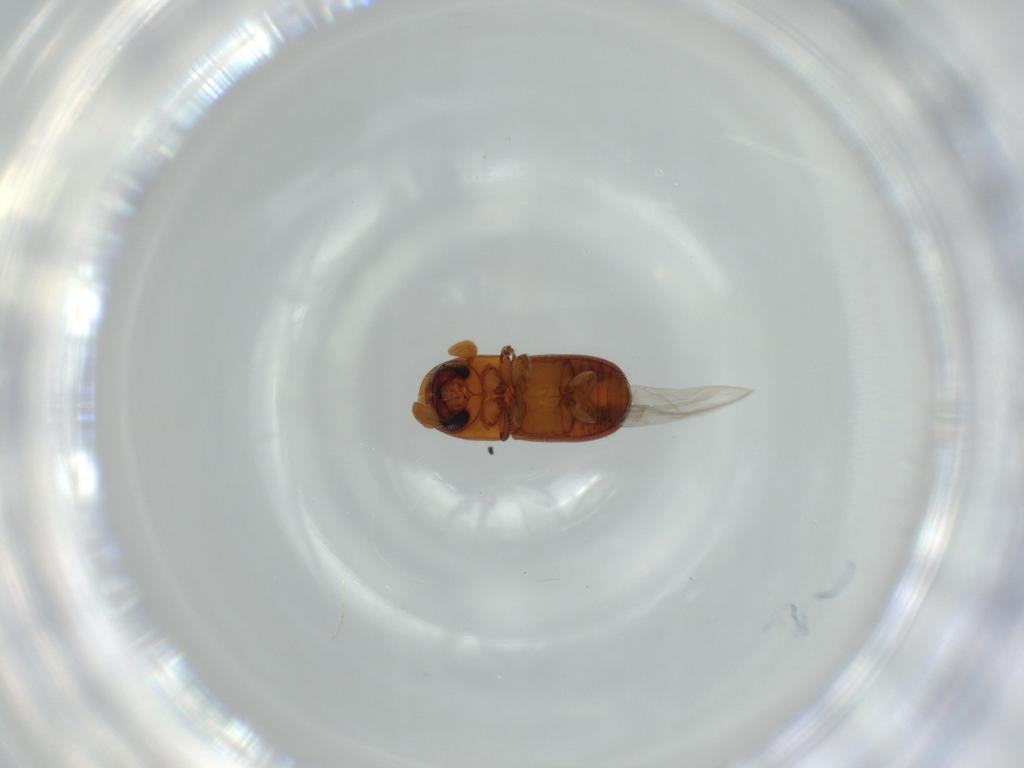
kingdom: Animalia
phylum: Arthropoda
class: Insecta
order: Coleoptera
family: Curculionidae
